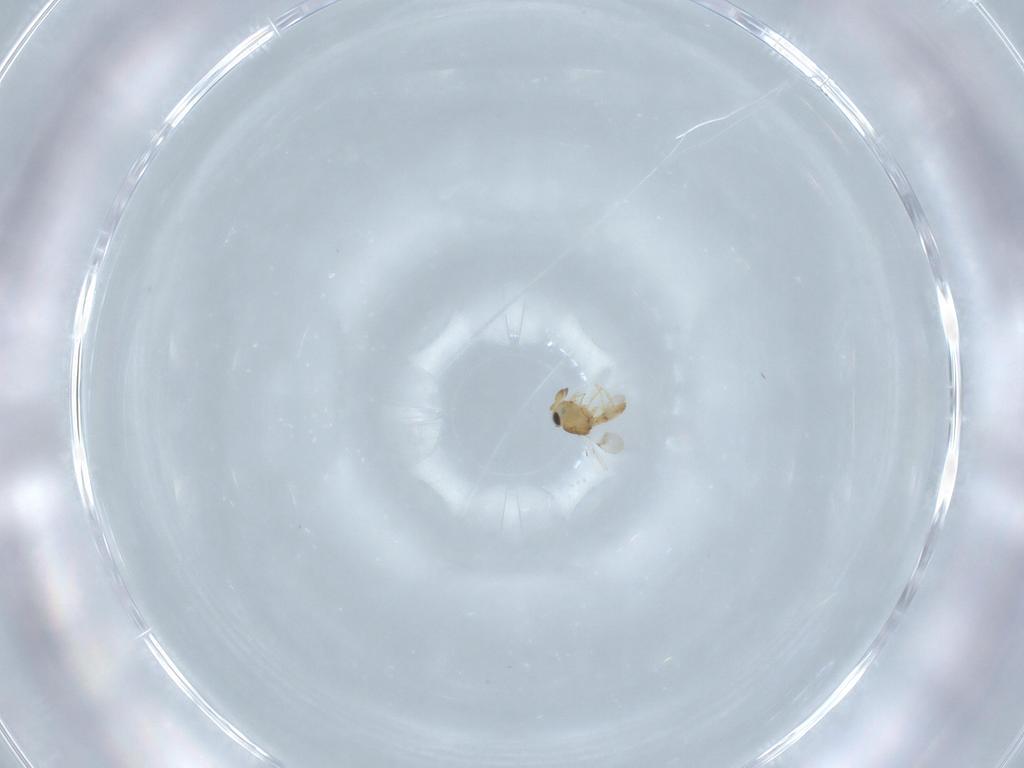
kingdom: Animalia
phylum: Arthropoda
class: Insecta
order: Hymenoptera
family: Scelionidae
